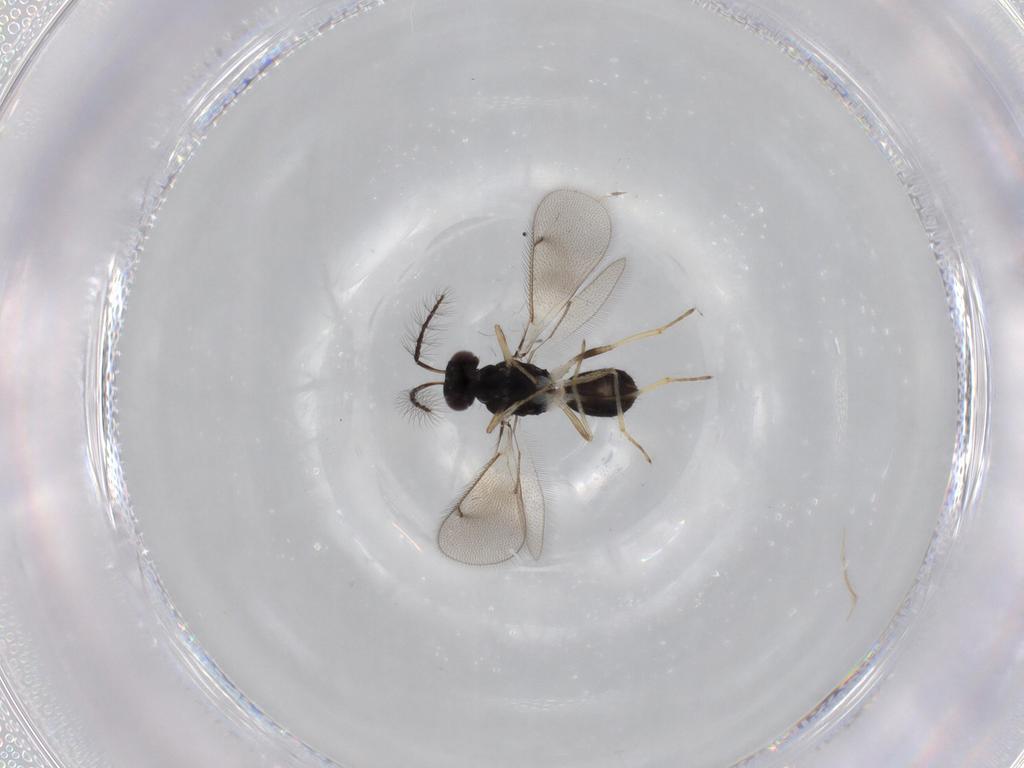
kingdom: Animalia
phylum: Arthropoda
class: Insecta
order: Hymenoptera
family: Eulophidae
